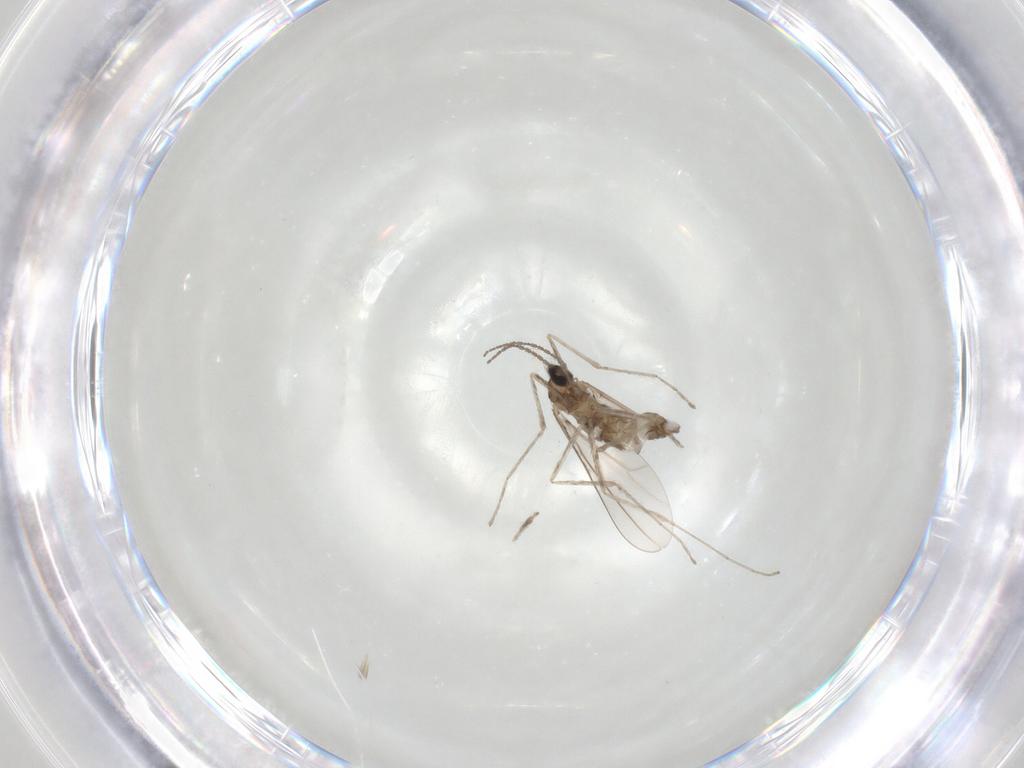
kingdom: Animalia
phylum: Arthropoda
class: Insecta
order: Diptera
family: Cecidomyiidae
